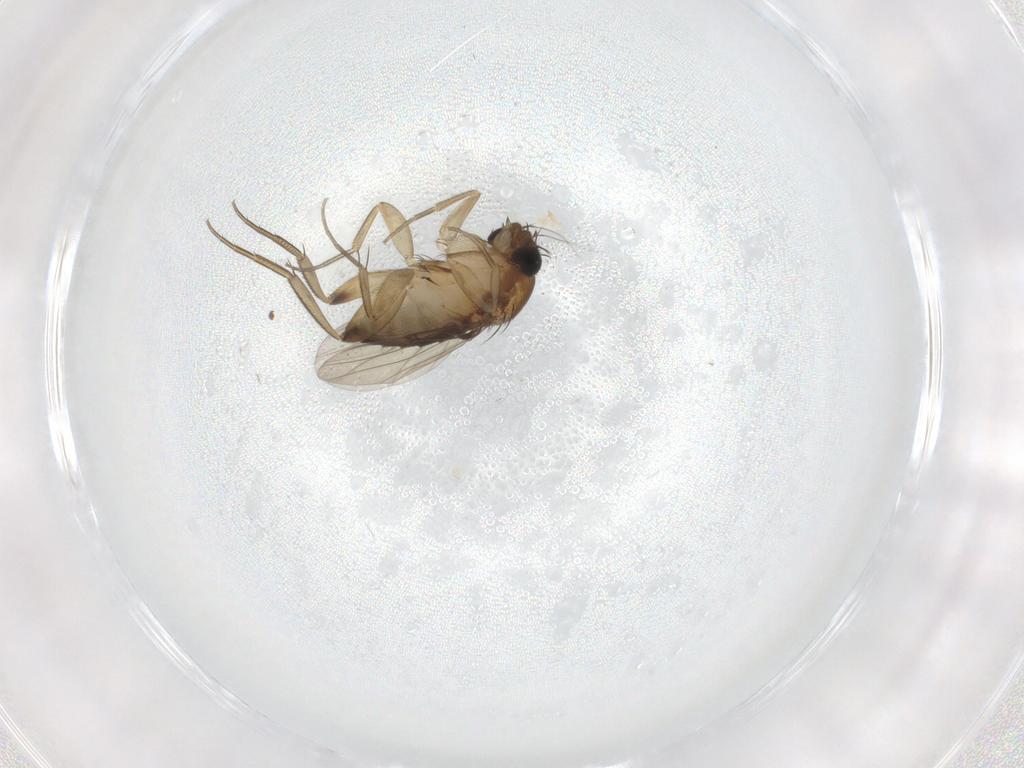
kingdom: Animalia
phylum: Arthropoda
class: Insecta
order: Diptera
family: Phoridae
